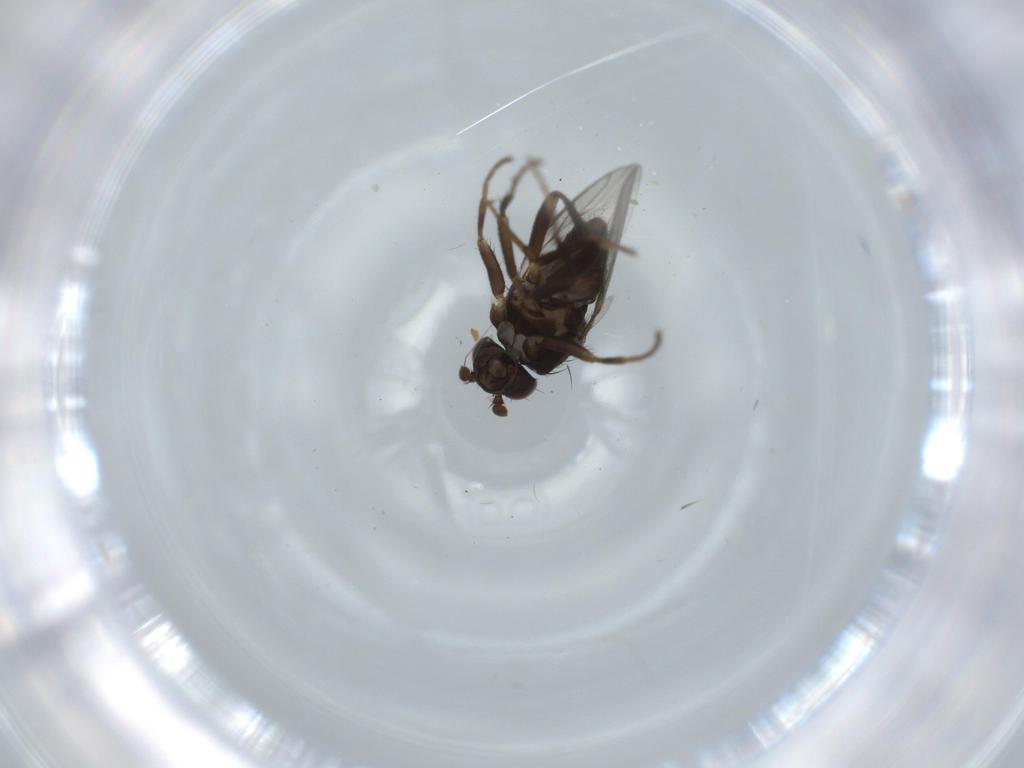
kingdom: Animalia
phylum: Arthropoda
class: Insecta
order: Diptera
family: Sphaeroceridae
